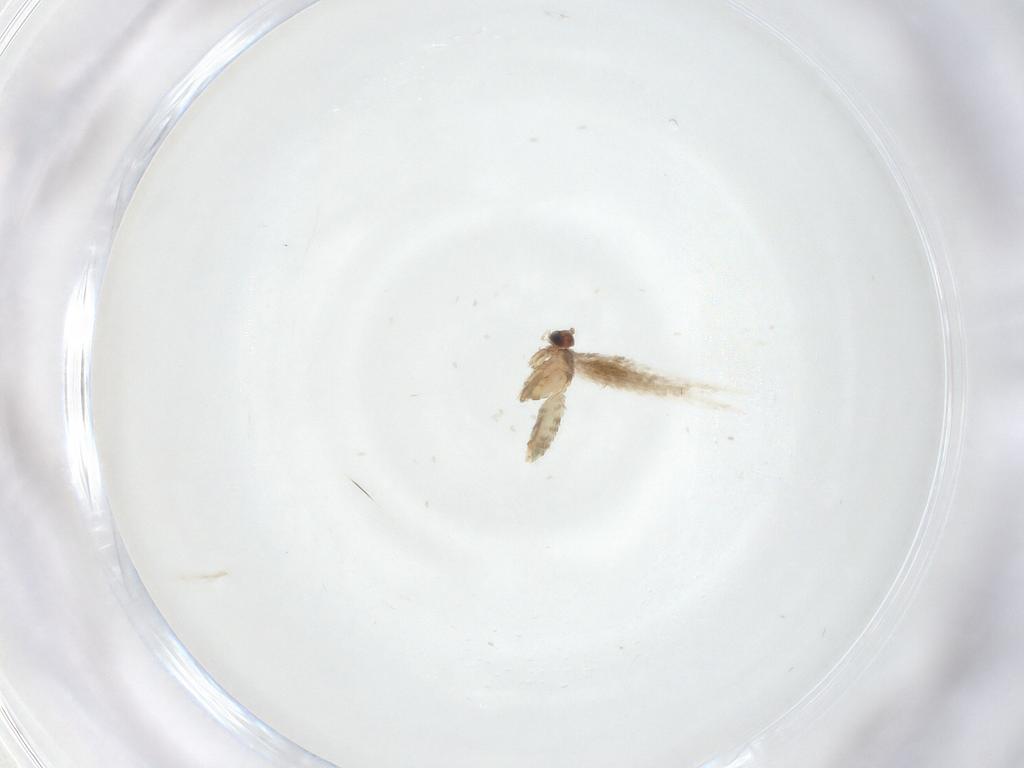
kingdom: Animalia
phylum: Arthropoda
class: Insecta
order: Lepidoptera
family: Nepticulidae
